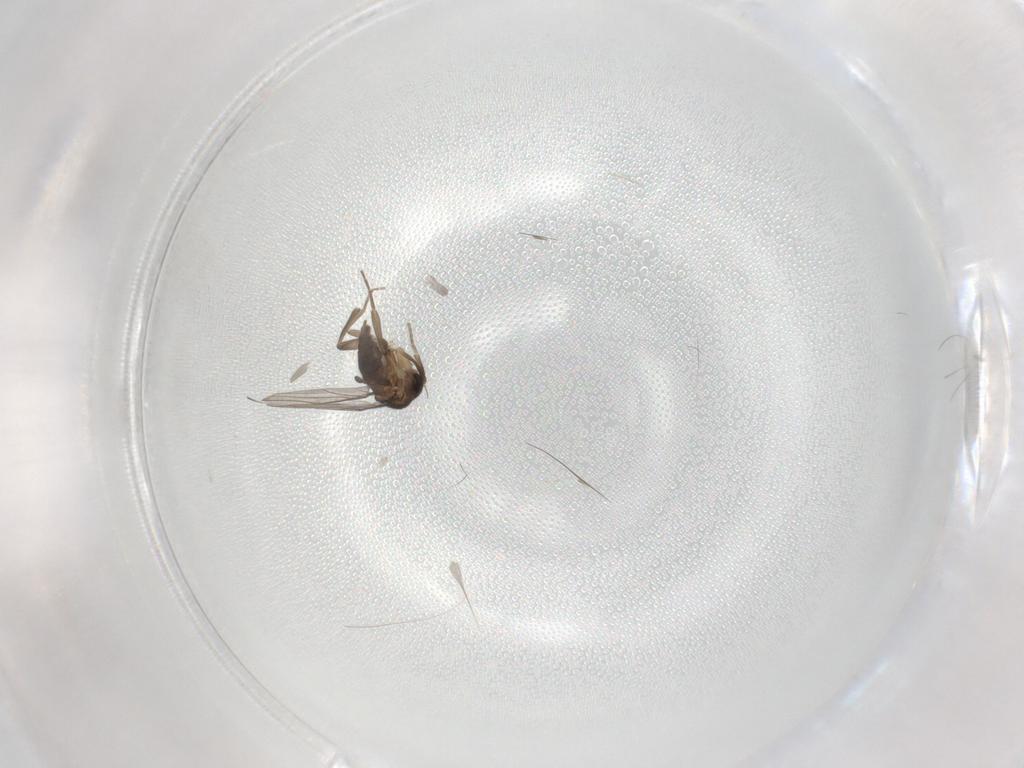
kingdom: Animalia
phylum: Arthropoda
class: Insecta
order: Diptera
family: Phoridae
